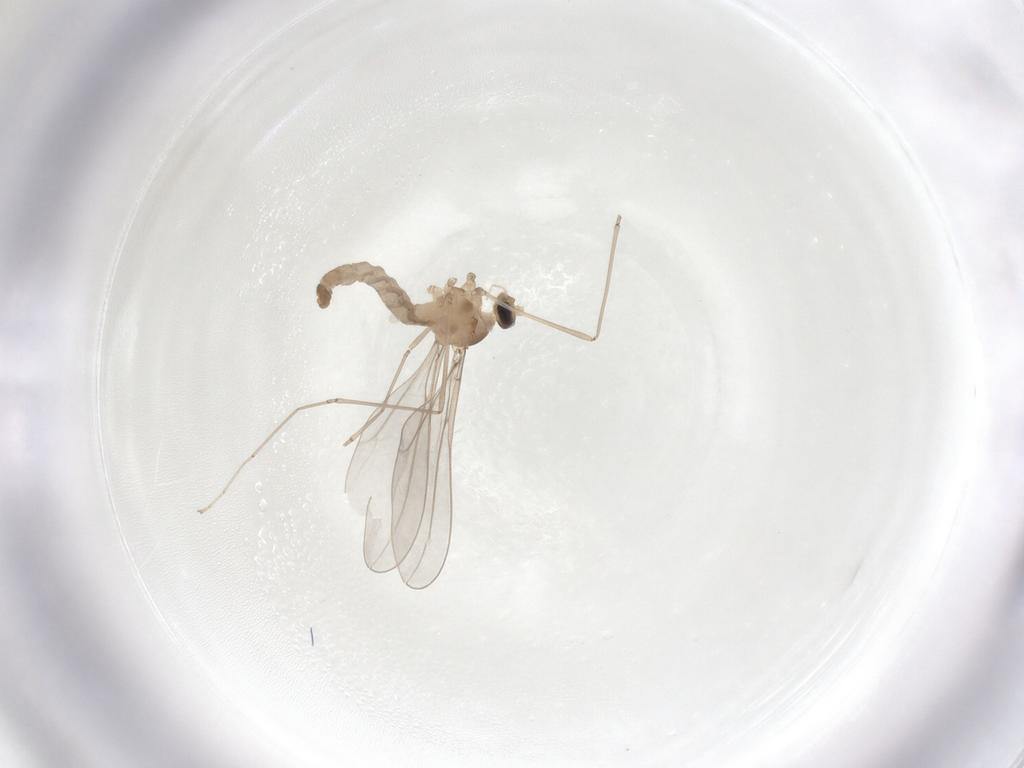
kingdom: Animalia
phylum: Arthropoda
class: Insecta
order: Diptera
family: Cecidomyiidae
